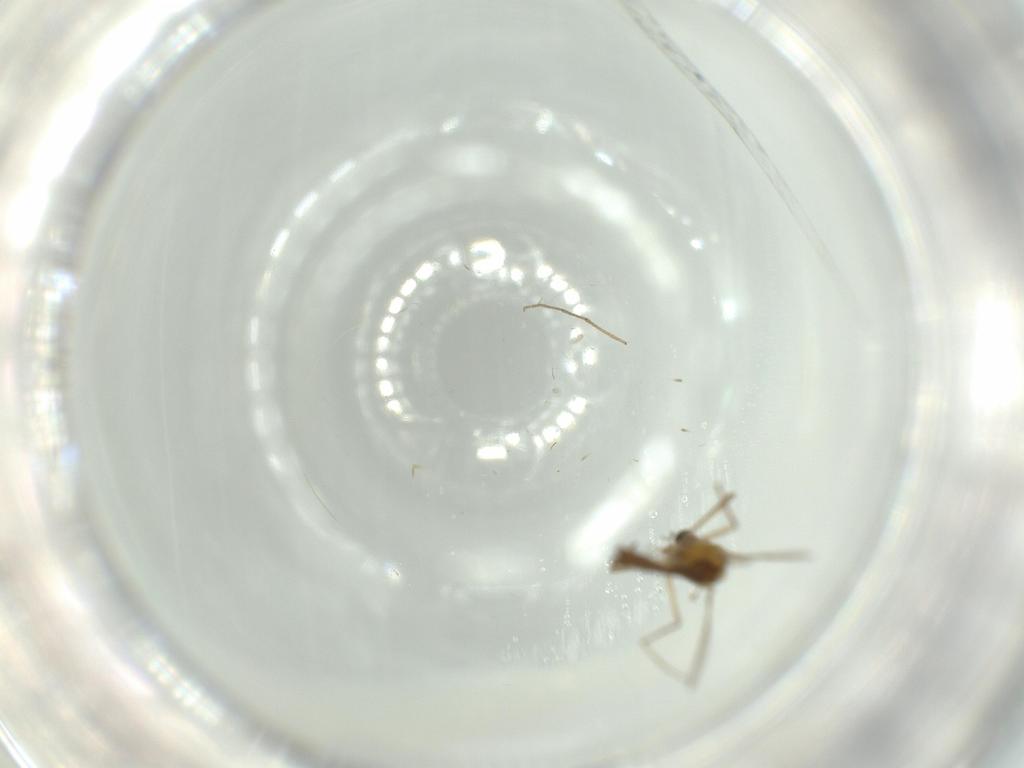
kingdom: Animalia
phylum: Arthropoda
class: Insecta
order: Diptera
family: Chironomidae
